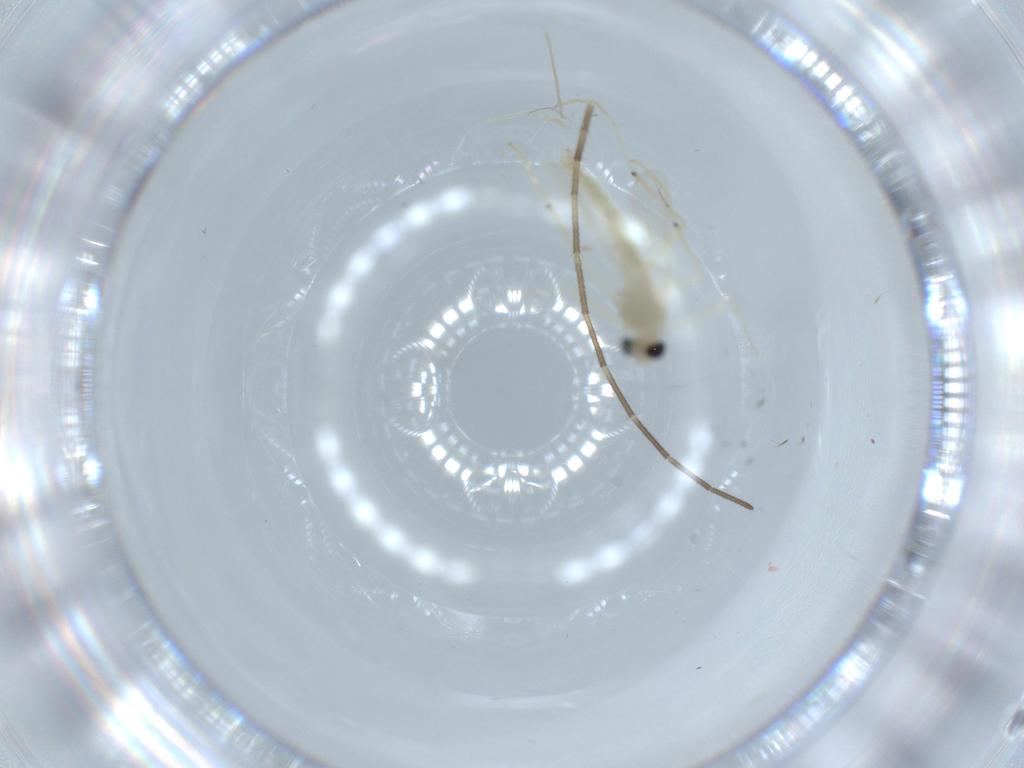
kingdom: Animalia
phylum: Arthropoda
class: Insecta
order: Diptera
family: Chironomidae
